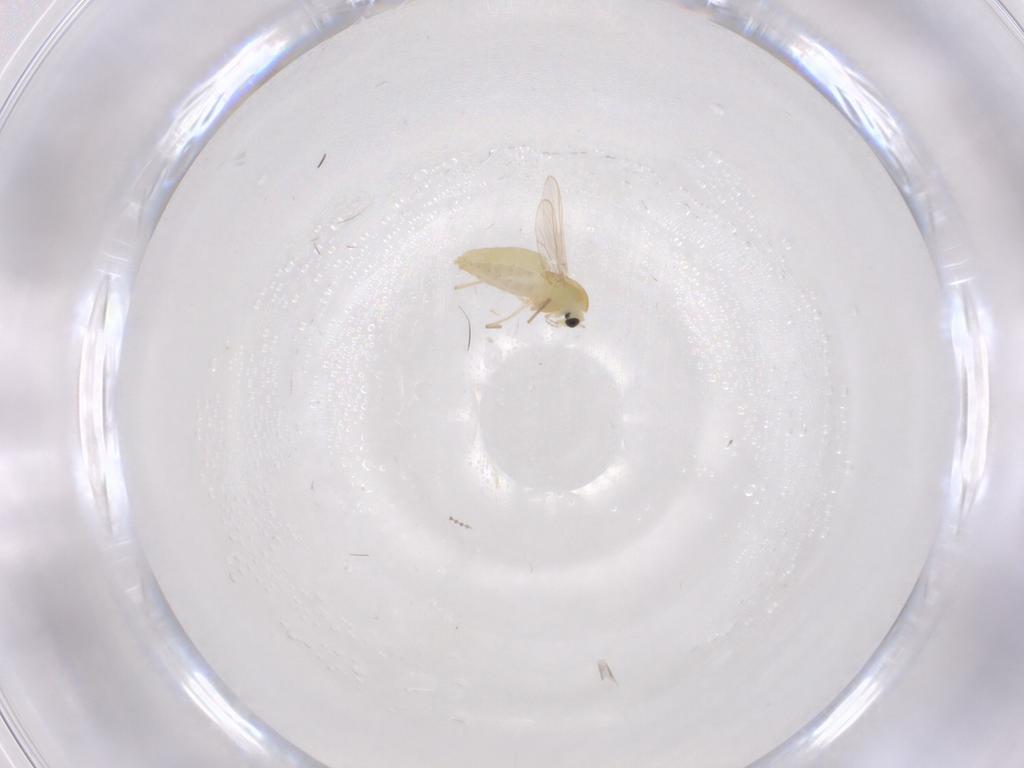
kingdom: Animalia
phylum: Arthropoda
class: Insecta
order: Diptera
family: Chironomidae
